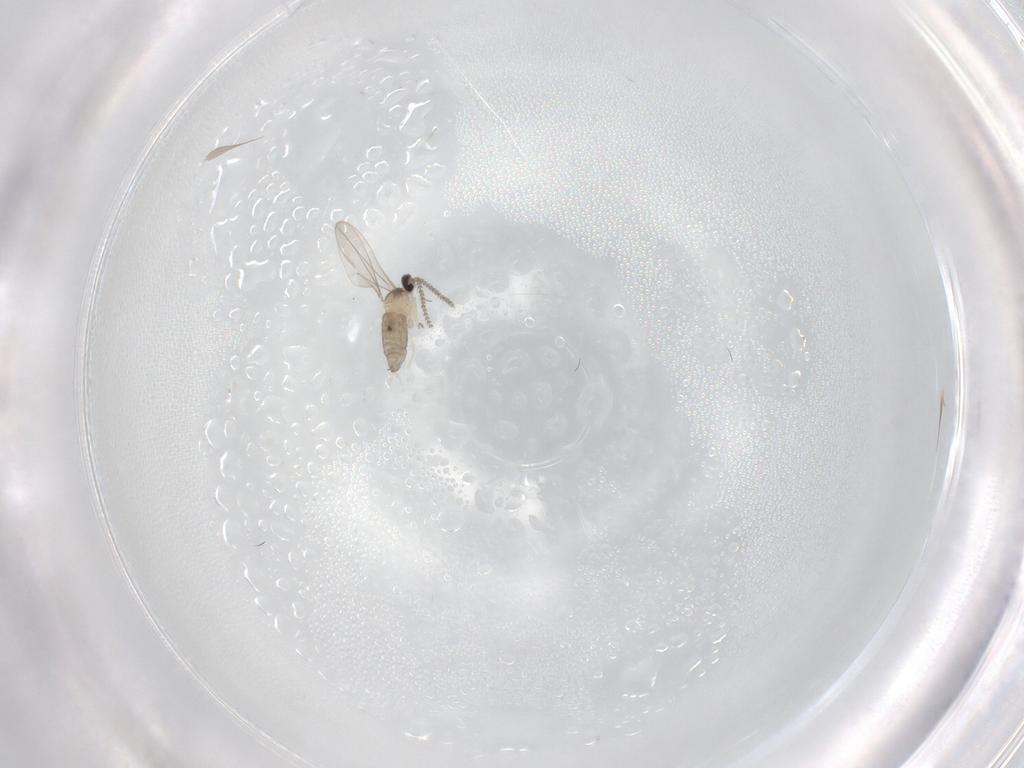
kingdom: Animalia
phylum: Arthropoda
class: Insecta
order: Diptera
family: Cecidomyiidae
